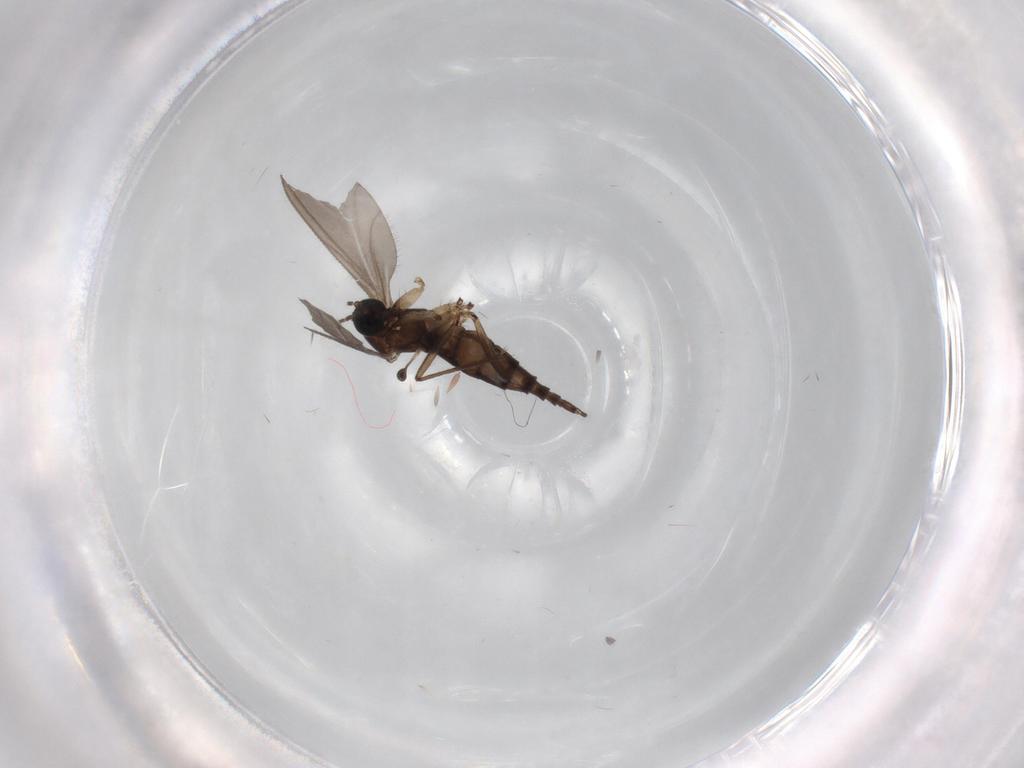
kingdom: Animalia
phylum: Arthropoda
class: Insecta
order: Diptera
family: Sciaridae
